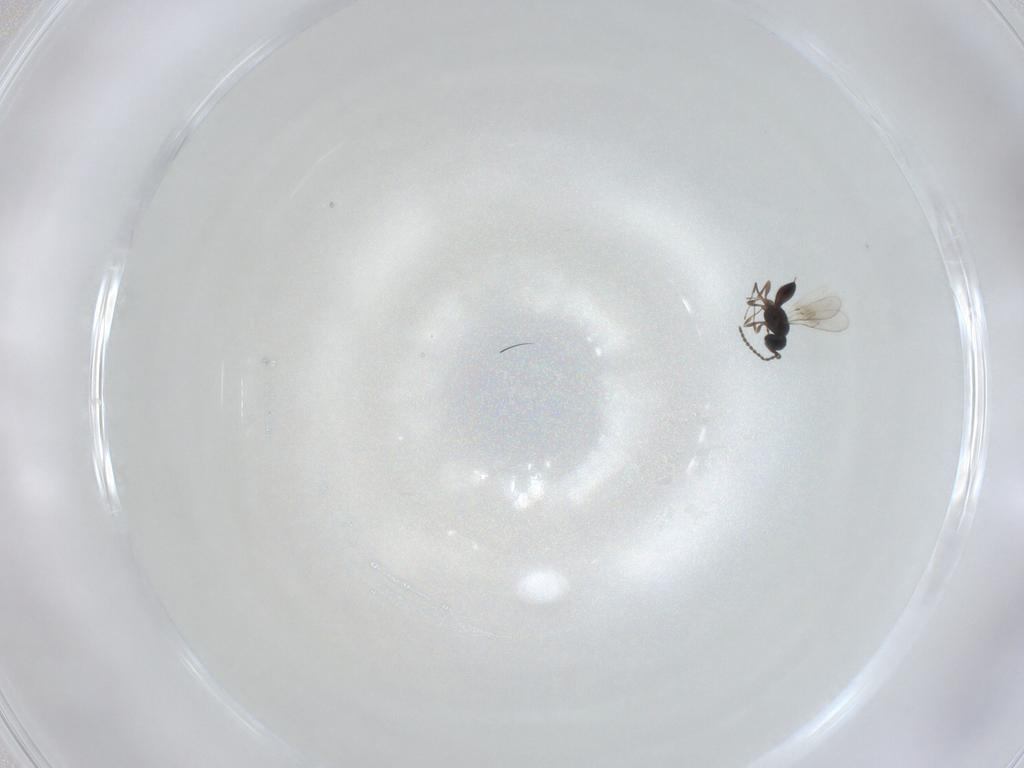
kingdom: Animalia
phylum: Arthropoda
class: Insecta
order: Hymenoptera
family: Scelionidae
